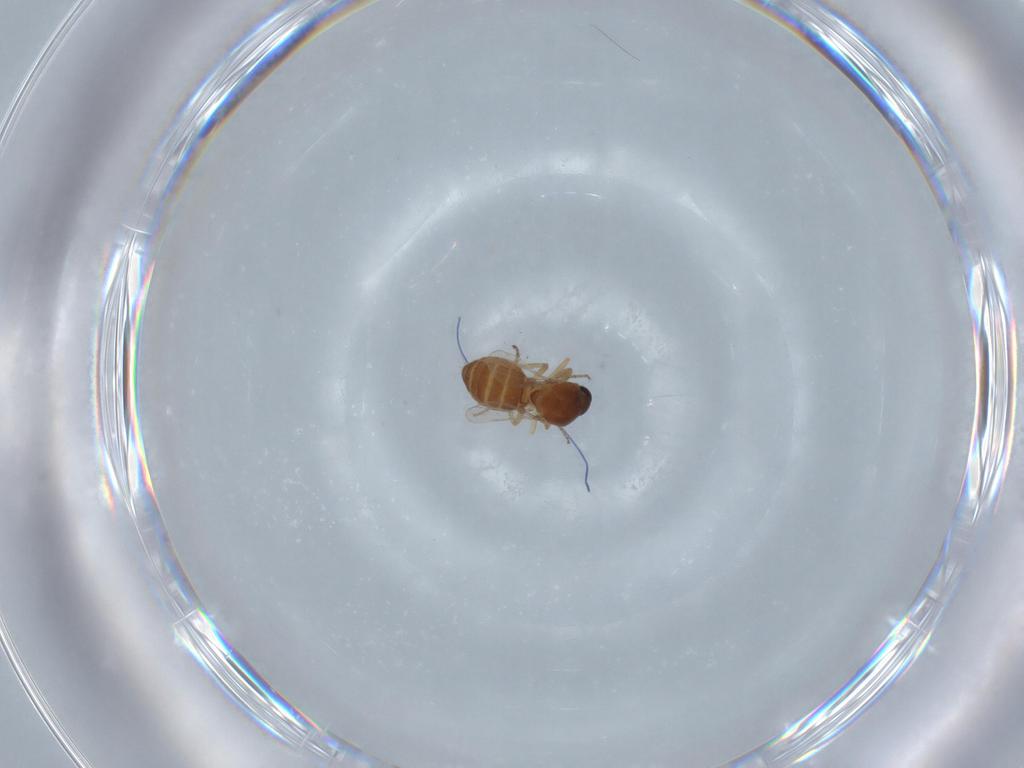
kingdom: Animalia
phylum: Arthropoda
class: Insecta
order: Diptera
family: Ceratopogonidae
